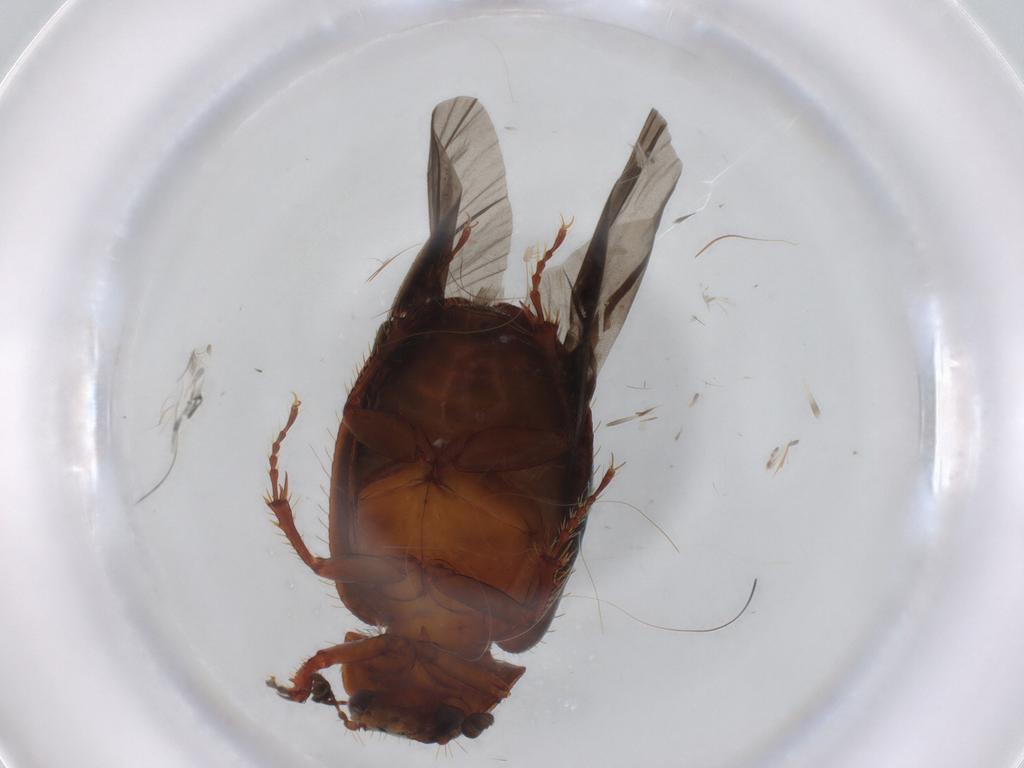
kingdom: Animalia
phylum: Arthropoda
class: Insecta
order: Coleoptera
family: Hybosoridae
